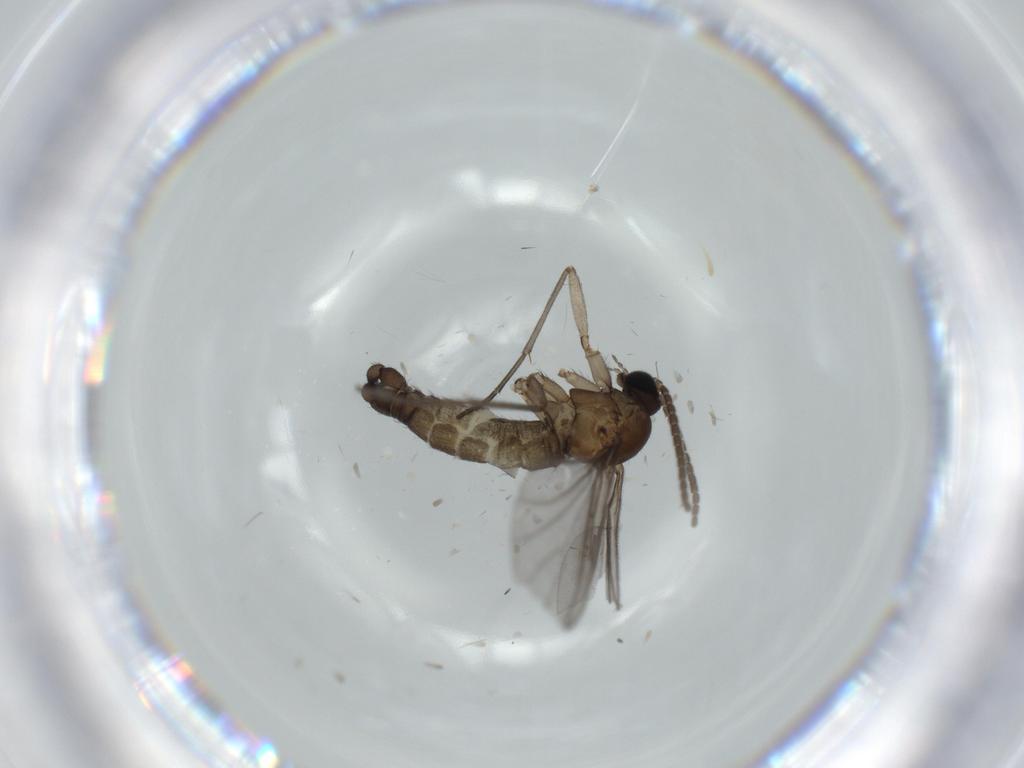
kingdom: Animalia
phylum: Arthropoda
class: Insecta
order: Diptera
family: Sciaridae
